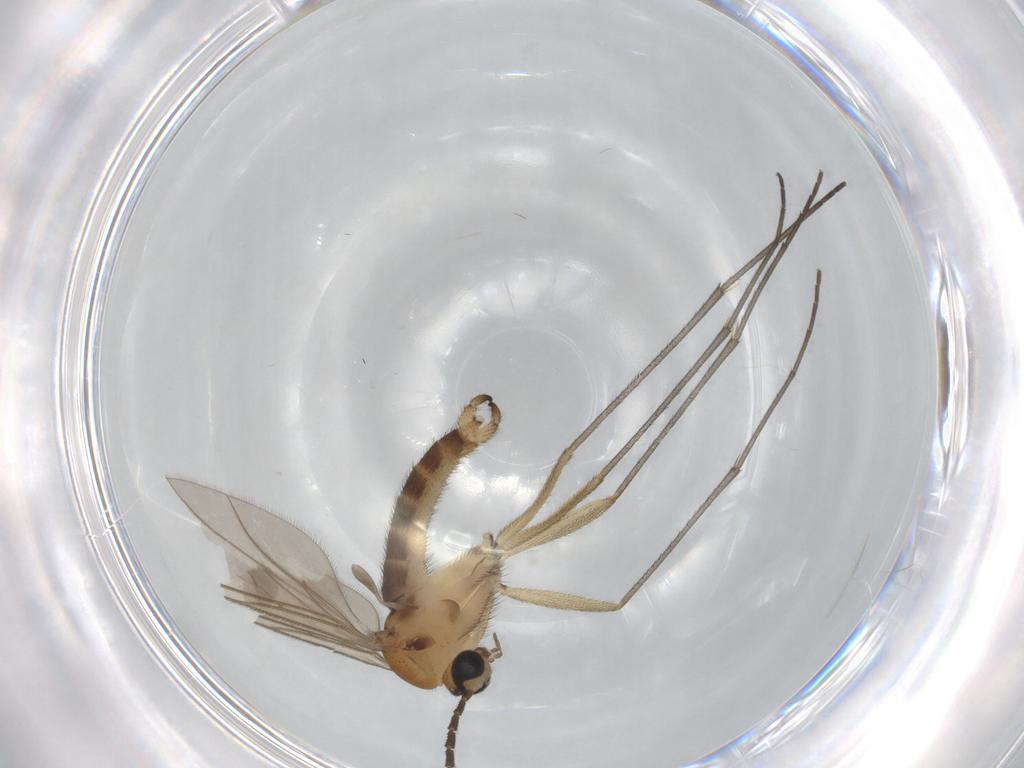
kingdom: Animalia
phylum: Arthropoda
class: Insecta
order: Diptera
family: Sciaridae
